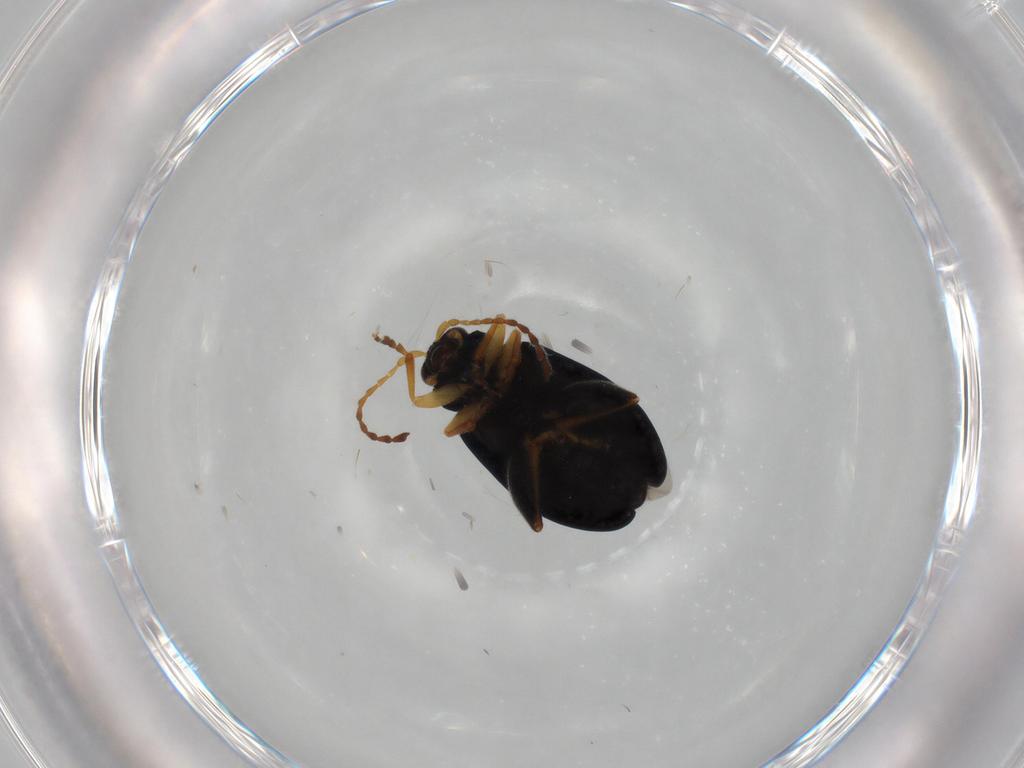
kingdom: Animalia
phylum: Arthropoda
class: Insecta
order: Coleoptera
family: Chrysomelidae
